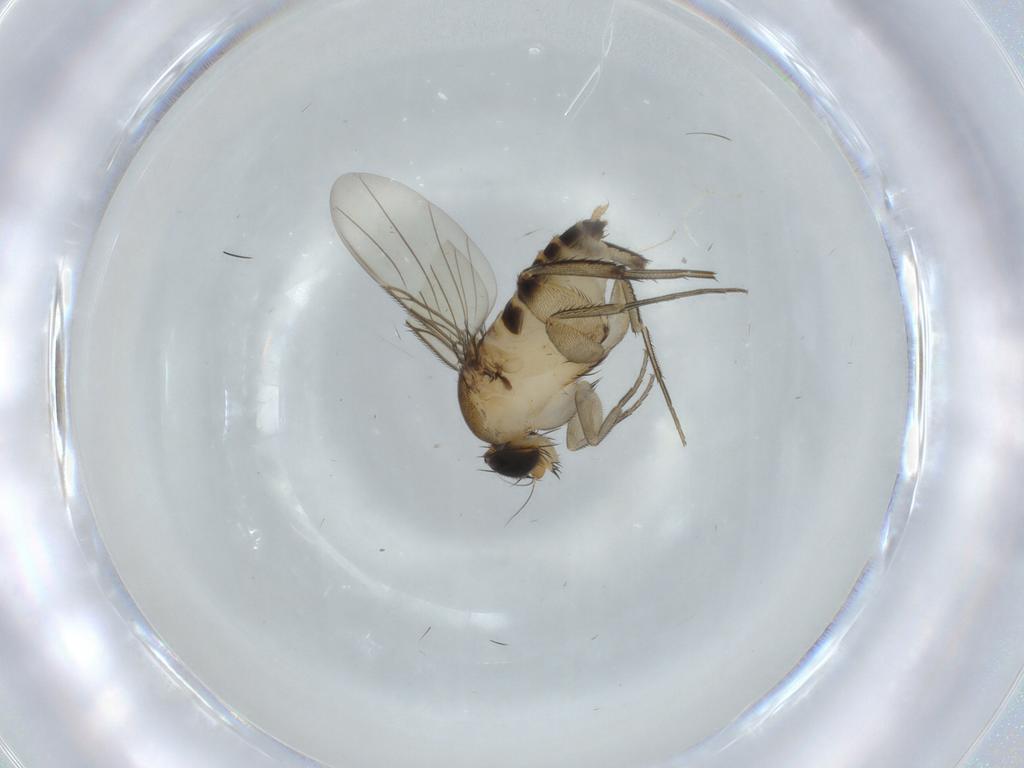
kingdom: Animalia
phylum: Arthropoda
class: Insecta
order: Diptera
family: Phoridae
